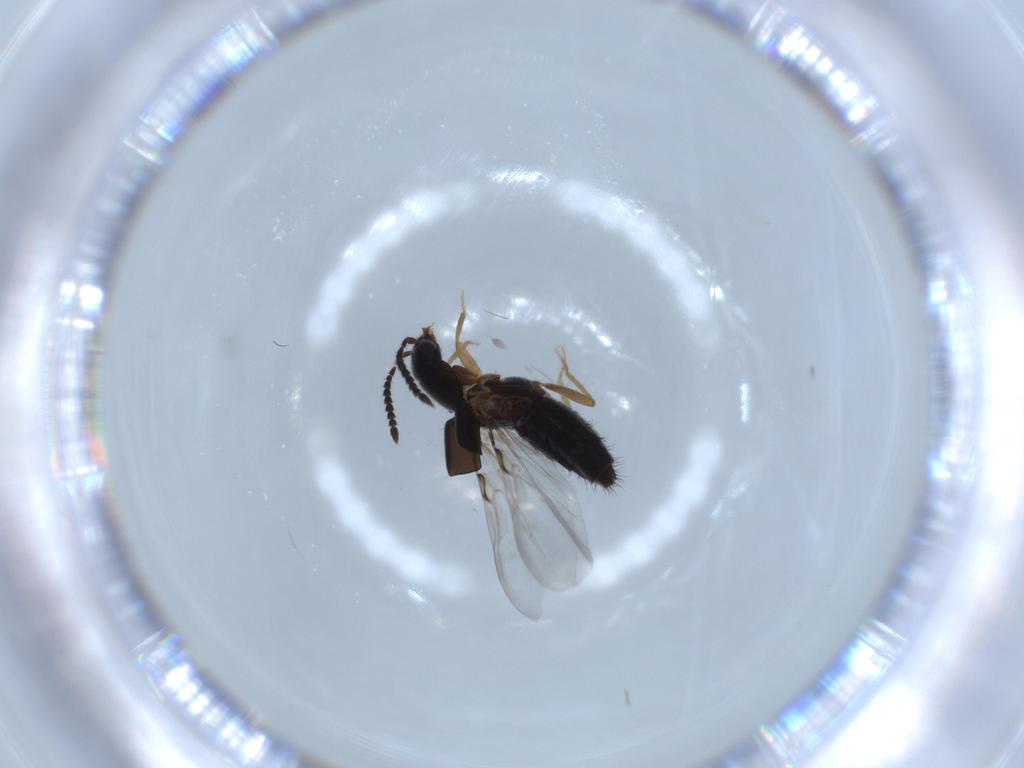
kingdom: Animalia
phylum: Arthropoda
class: Insecta
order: Coleoptera
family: Staphylinidae
